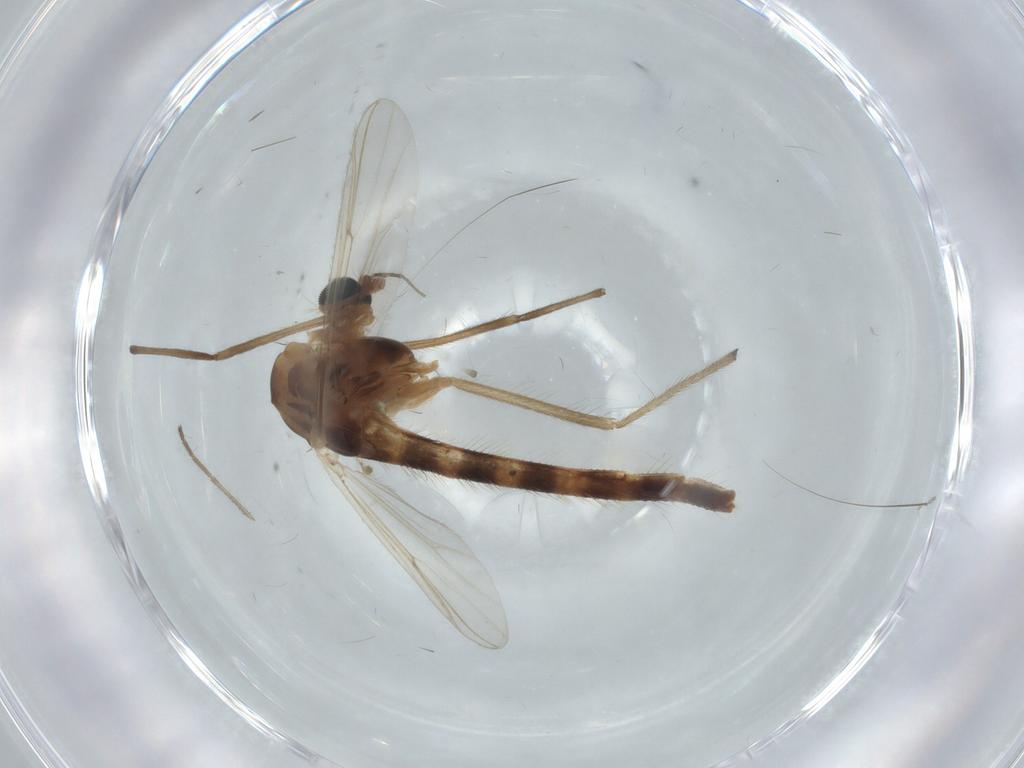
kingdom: Animalia
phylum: Arthropoda
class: Insecta
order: Diptera
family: Chironomidae
